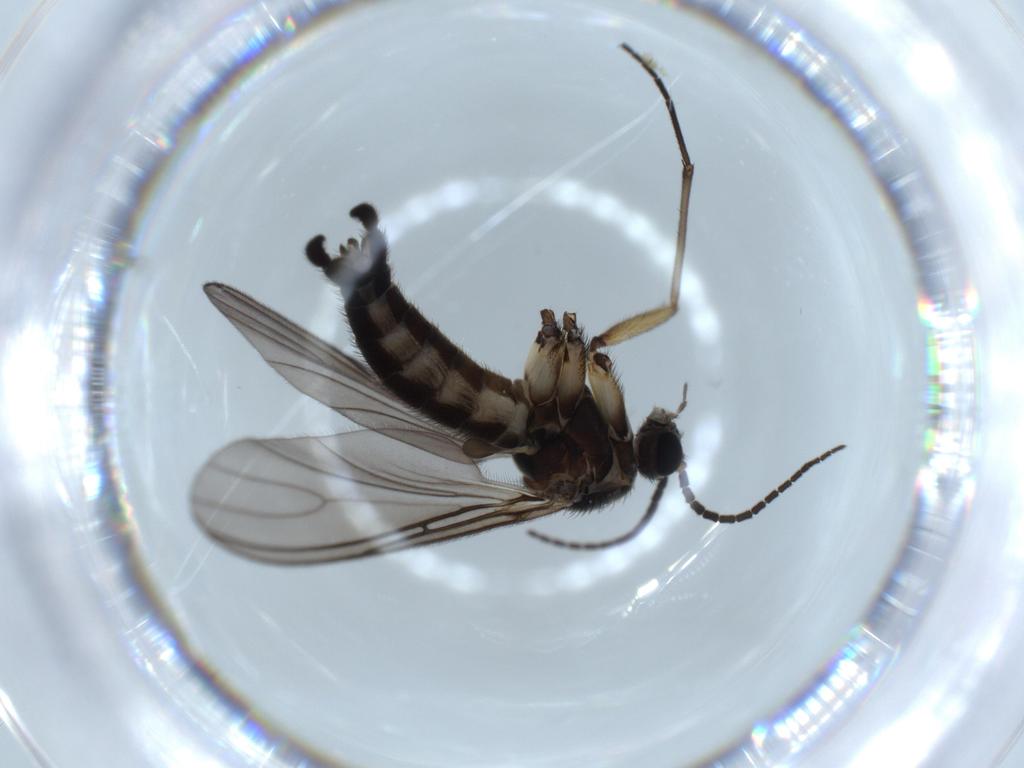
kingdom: Animalia
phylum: Arthropoda
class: Insecta
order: Diptera
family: Sciaridae
